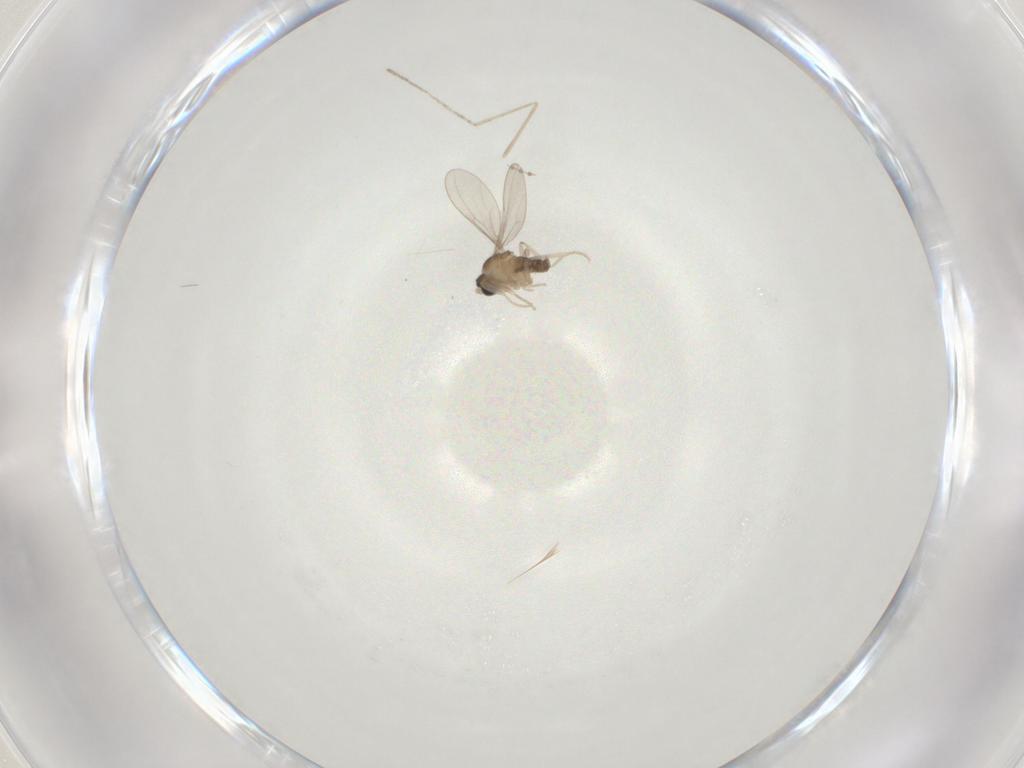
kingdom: Animalia
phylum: Arthropoda
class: Insecta
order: Diptera
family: Cecidomyiidae
